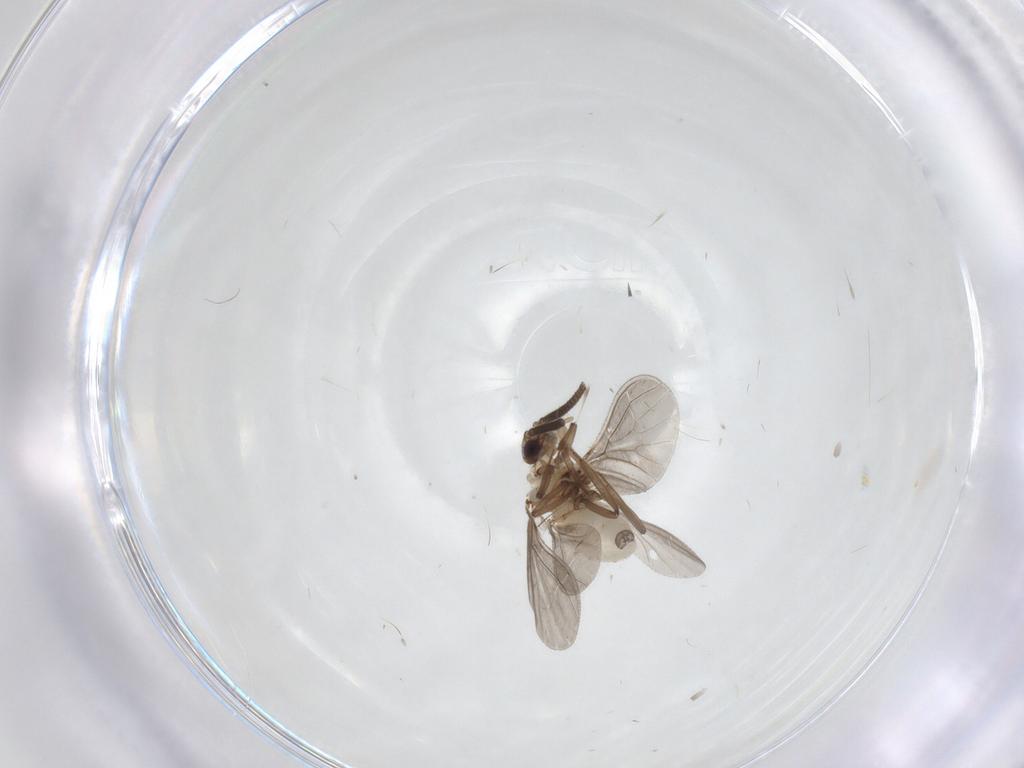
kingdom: Animalia
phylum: Arthropoda
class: Insecta
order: Neuroptera
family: Coniopterygidae
